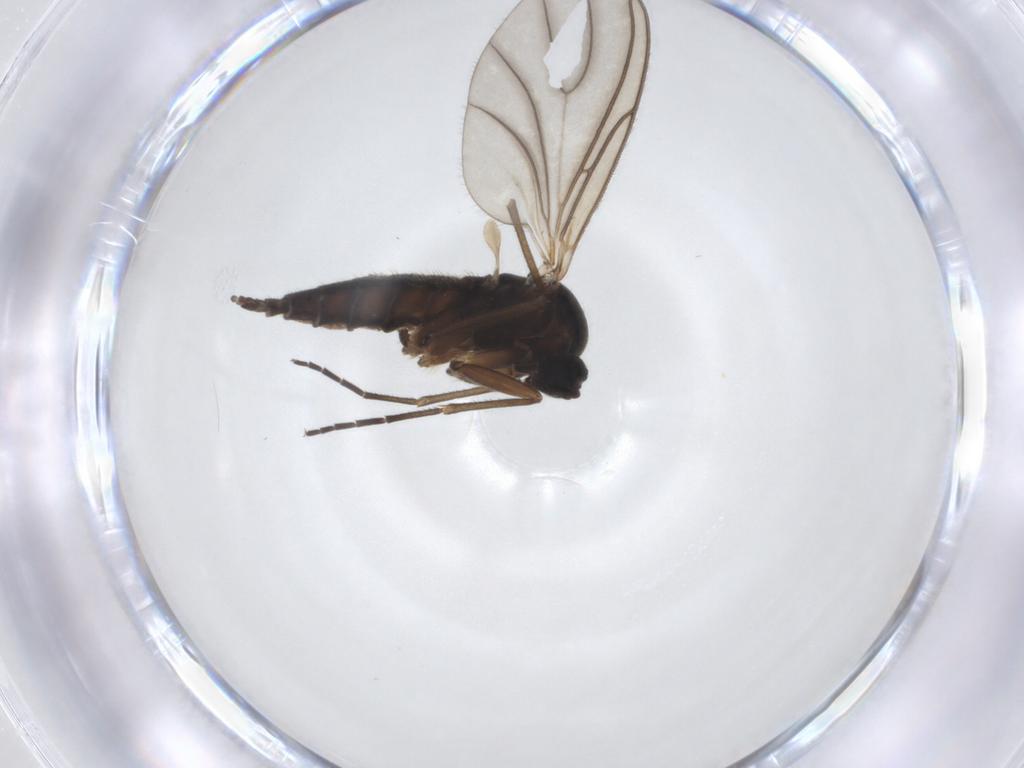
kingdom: Animalia
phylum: Arthropoda
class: Insecta
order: Diptera
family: Sciaridae
